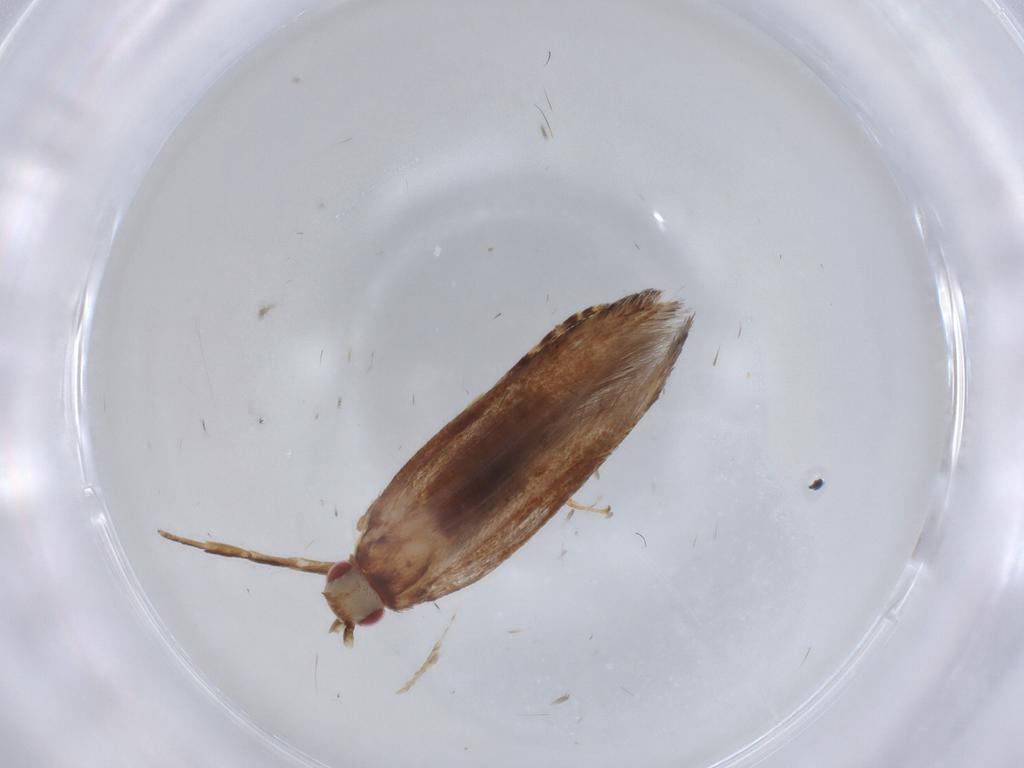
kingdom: Animalia
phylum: Arthropoda
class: Insecta
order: Lepidoptera
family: Cosmopterigidae
